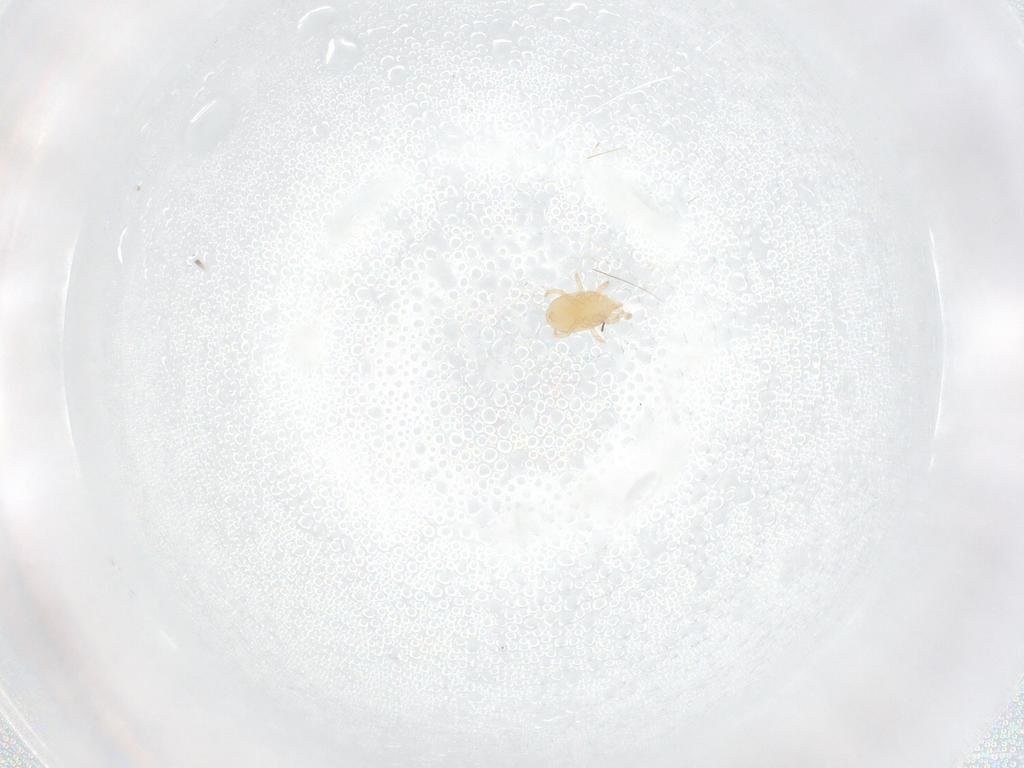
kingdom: Animalia
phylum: Arthropoda
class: Arachnida
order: Mesostigmata
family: Melicharidae
